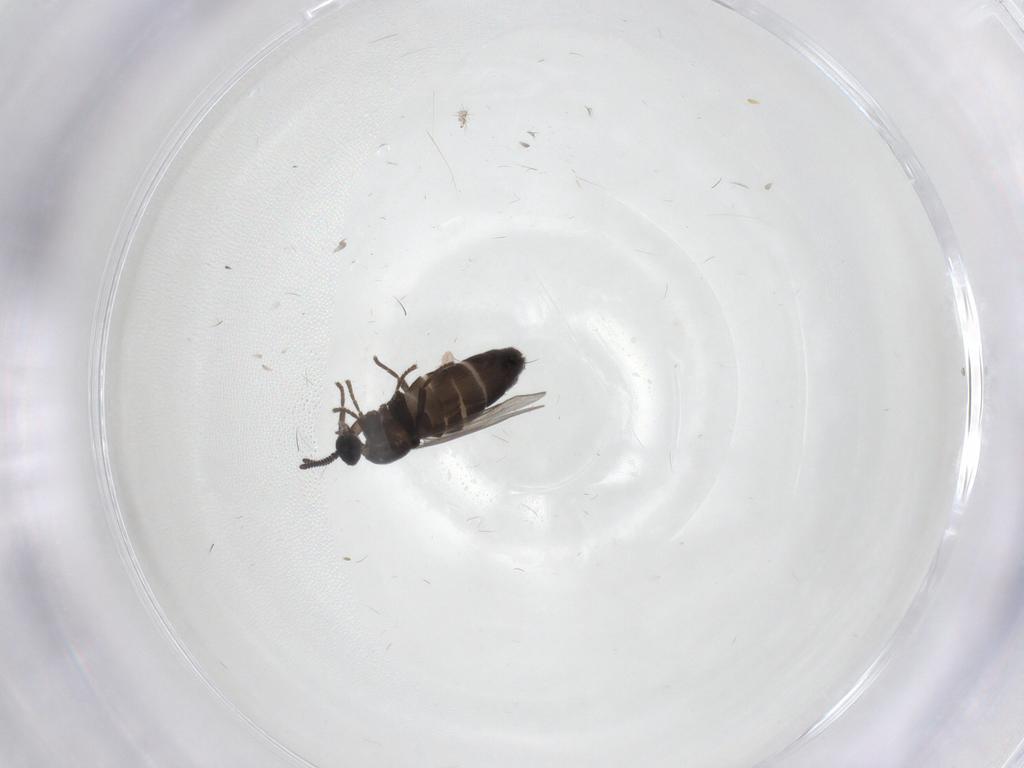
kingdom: Animalia
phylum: Arthropoda
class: Insecta
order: Diptera
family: Scatopsidae
